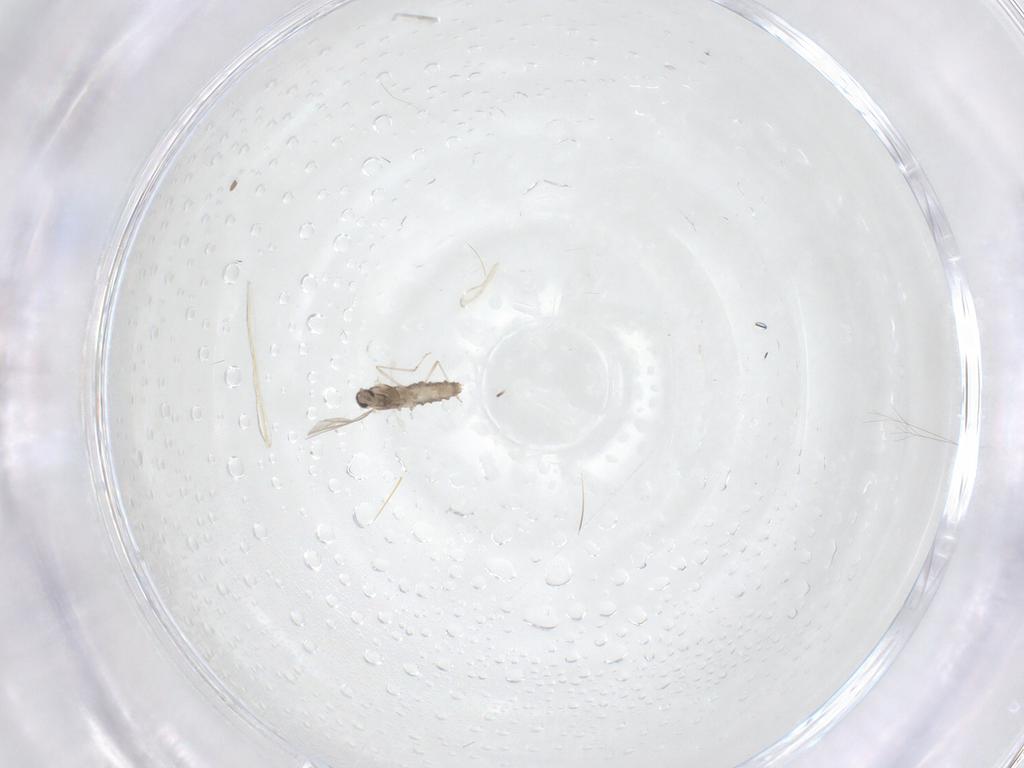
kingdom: Animalia
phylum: Arthropoda
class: Insecta
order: Diptera
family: Cecidomyiidae
